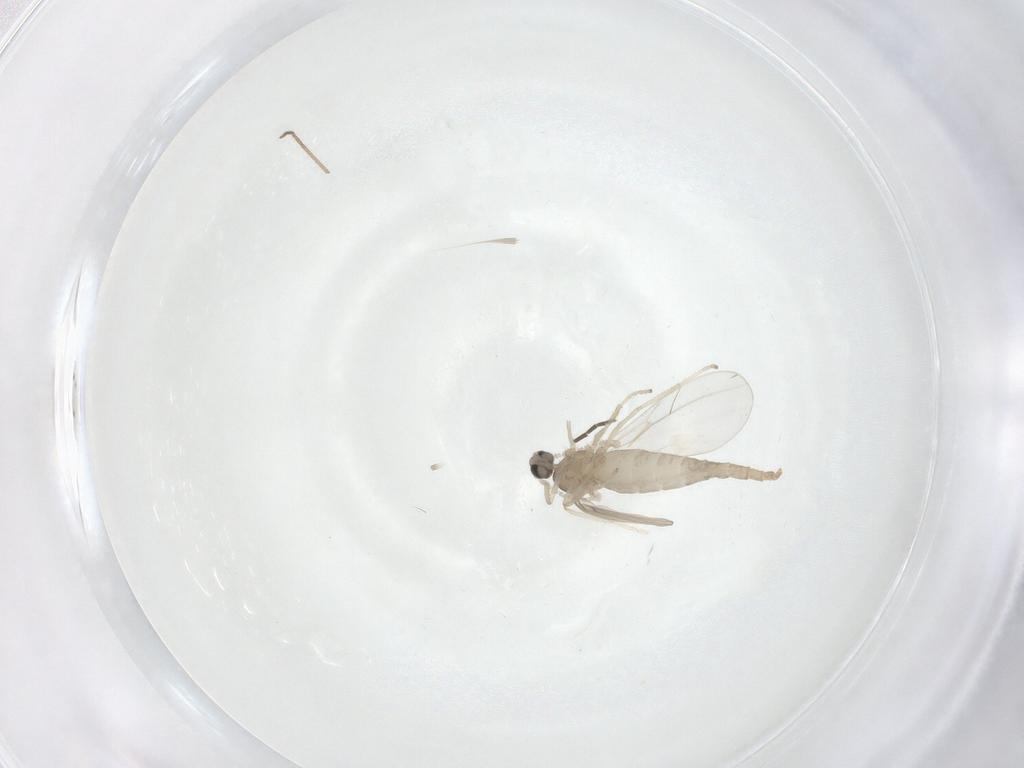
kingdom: Animalia
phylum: Arthropoda
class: Insecta
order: Diptera
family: Cecidomyiidae
